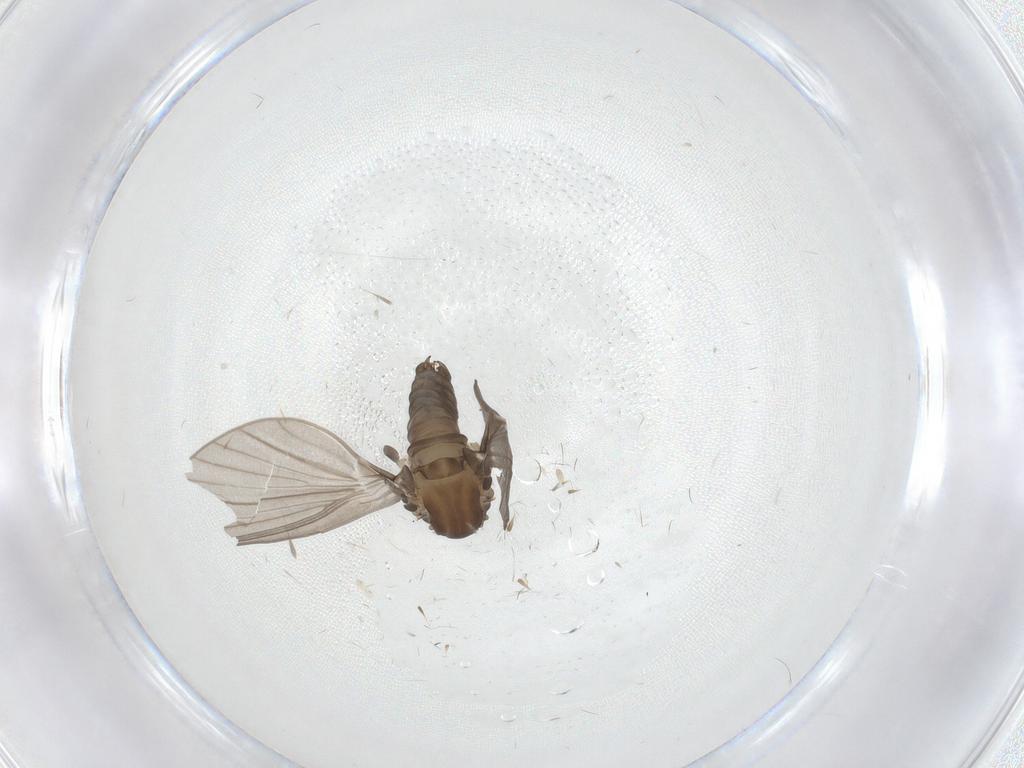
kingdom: Animalia
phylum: Arthropoda
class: Insecta
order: Diptera
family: Psychodidae
